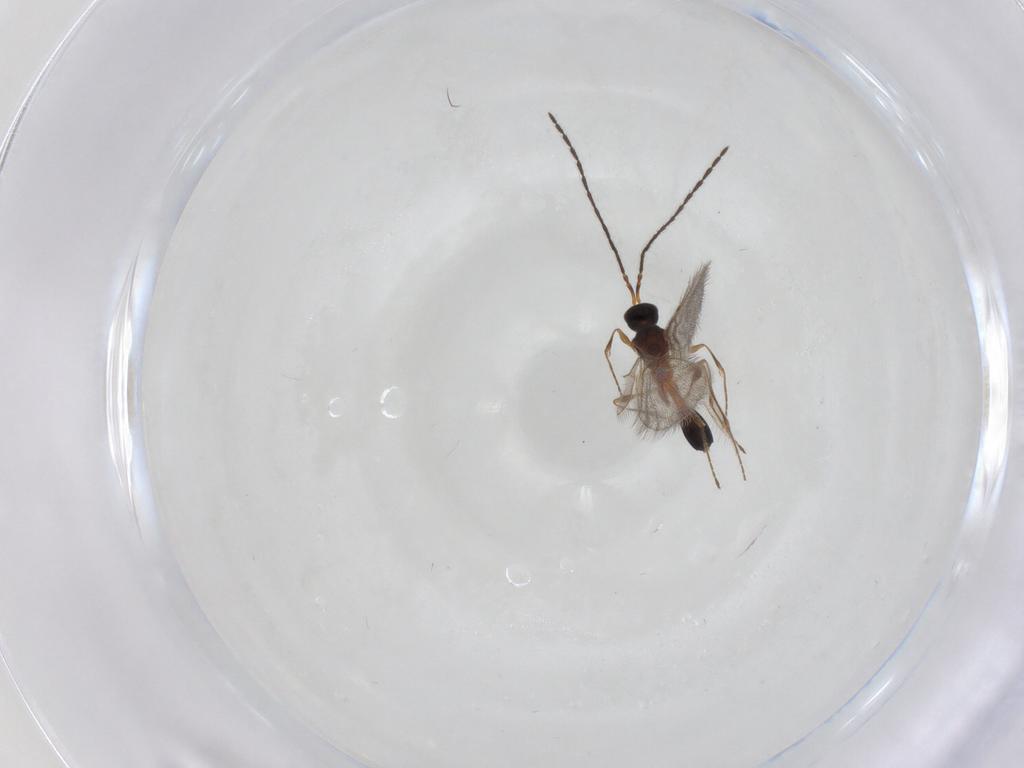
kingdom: Animalia
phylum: Arthropoda
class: Insecta
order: Hymenoptera
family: Diapriidae
